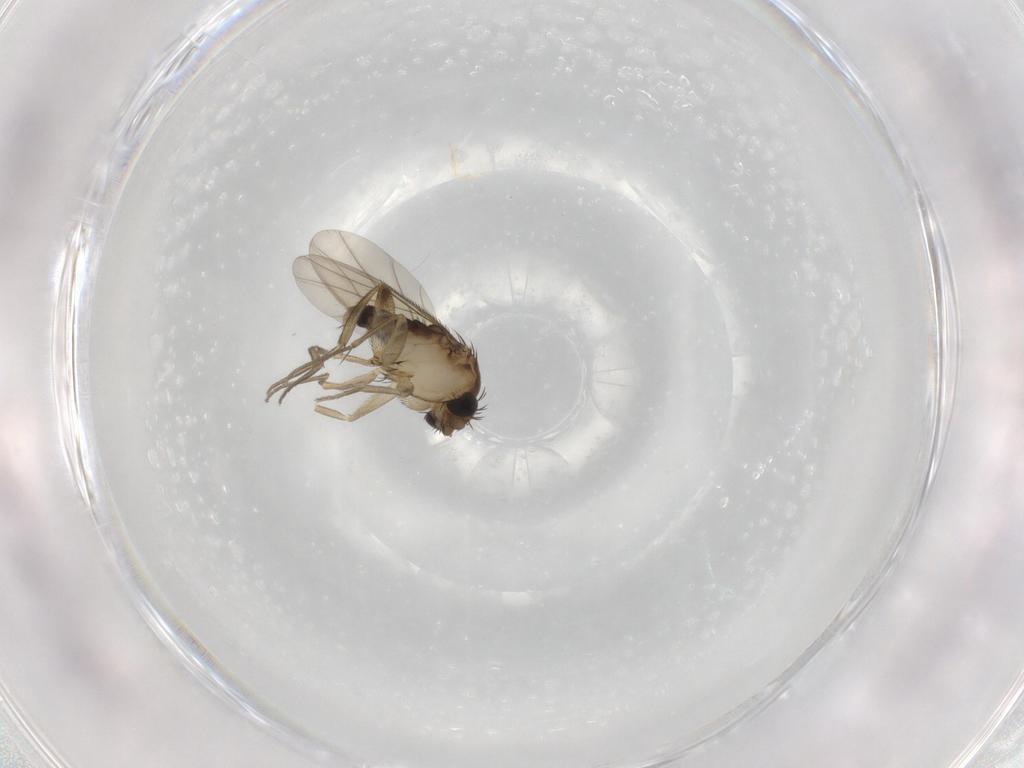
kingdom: Animalia
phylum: Arthropoda
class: Insecta
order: Diptera
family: Phoridae
